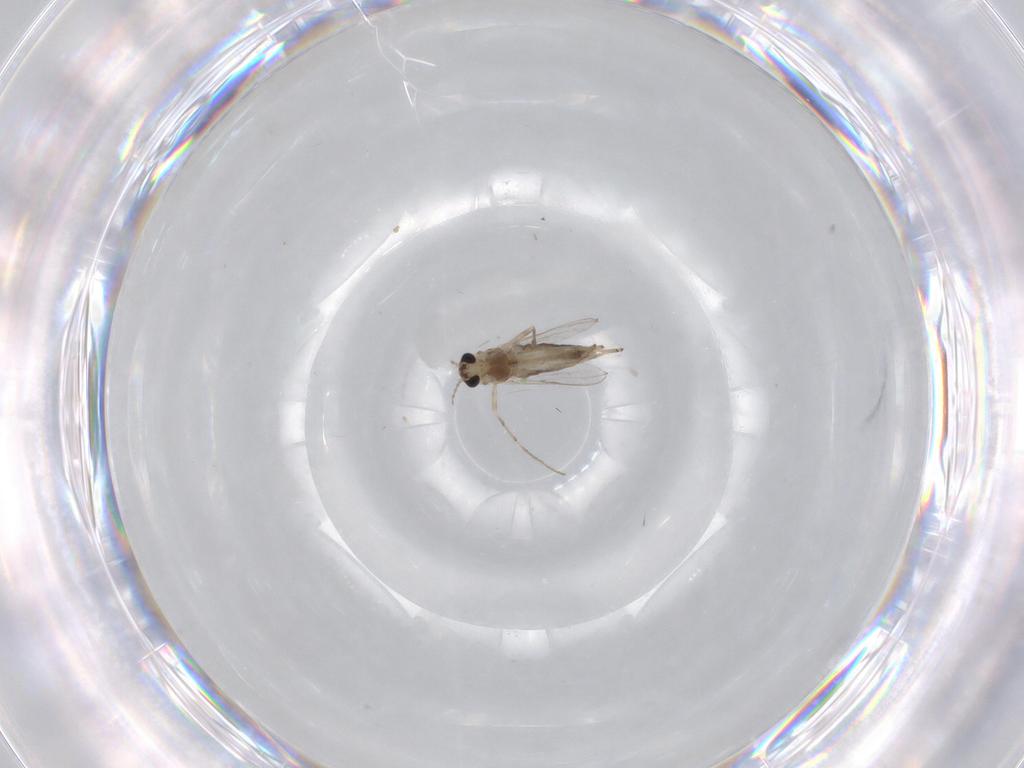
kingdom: Animalia
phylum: Arthropoda
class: Insecta
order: Diptera
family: Chironomidae
